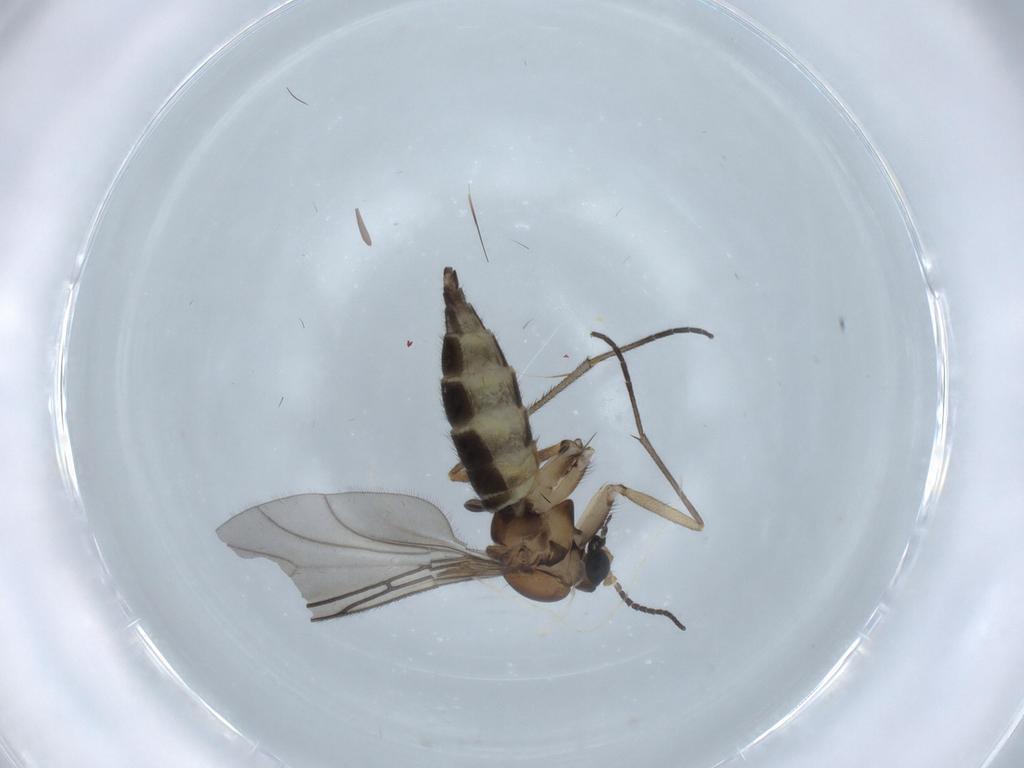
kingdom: Animalia
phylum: Arthropoda
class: Insecta
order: Diptera
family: Sciaridae
